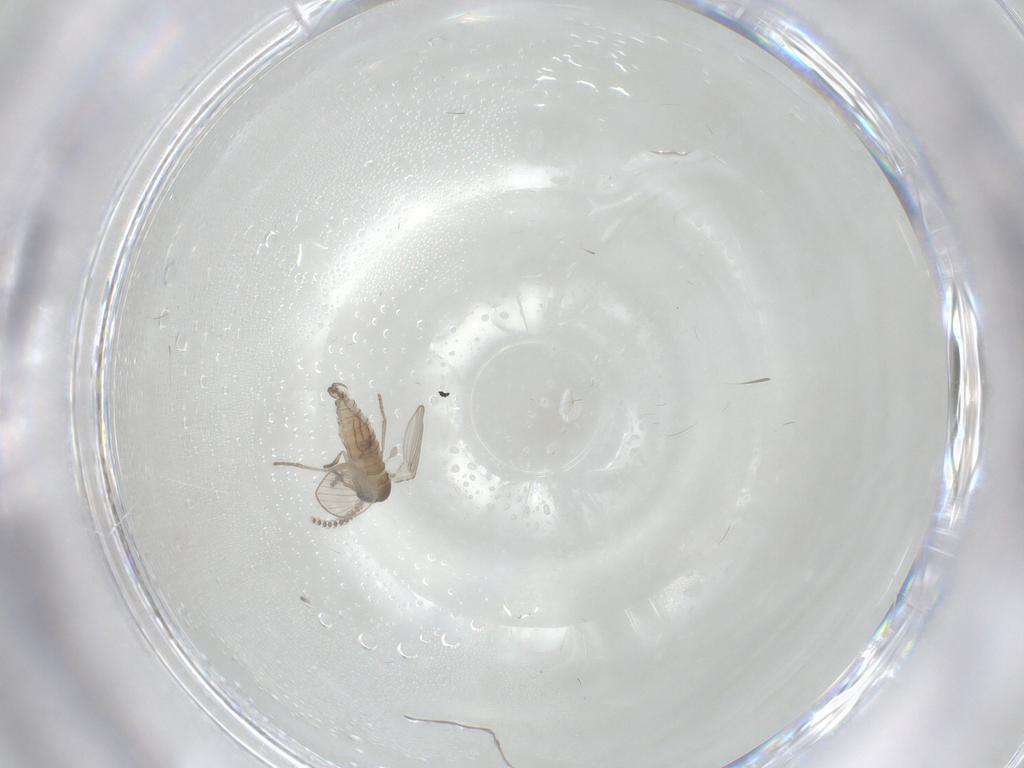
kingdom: Animalia
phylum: Arthropoda
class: Insecta
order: Diptera
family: Psychodidae
